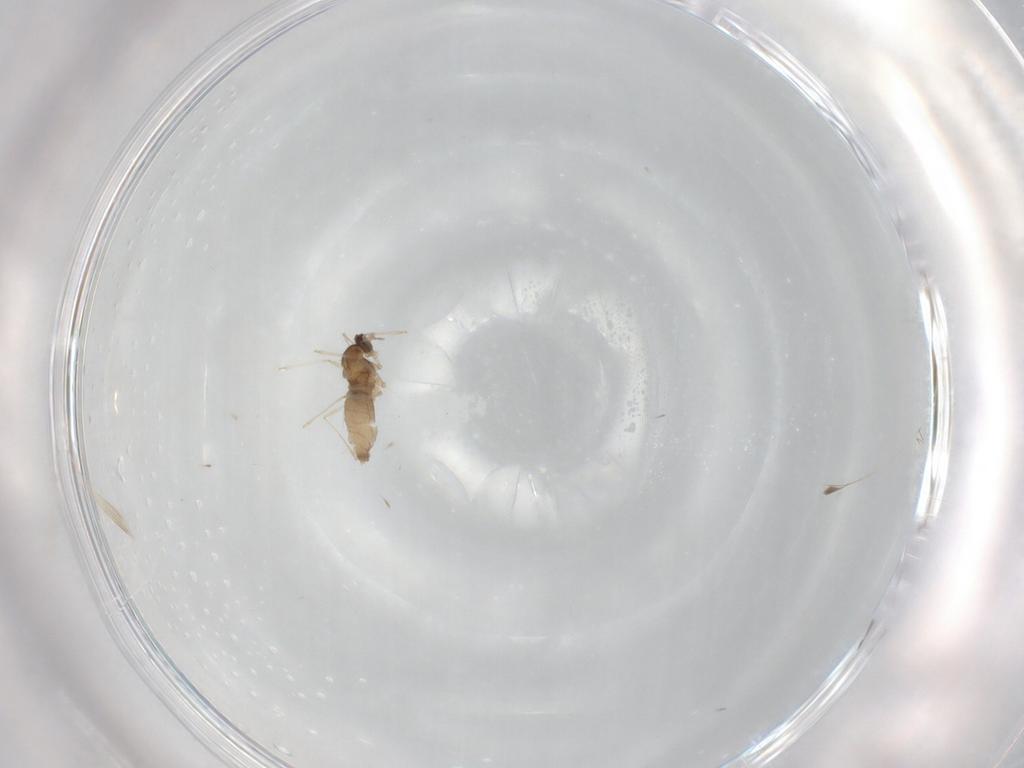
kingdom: Animalia
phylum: Arthropoda
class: Insecta
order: Diptera
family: Cecidomyiidae
